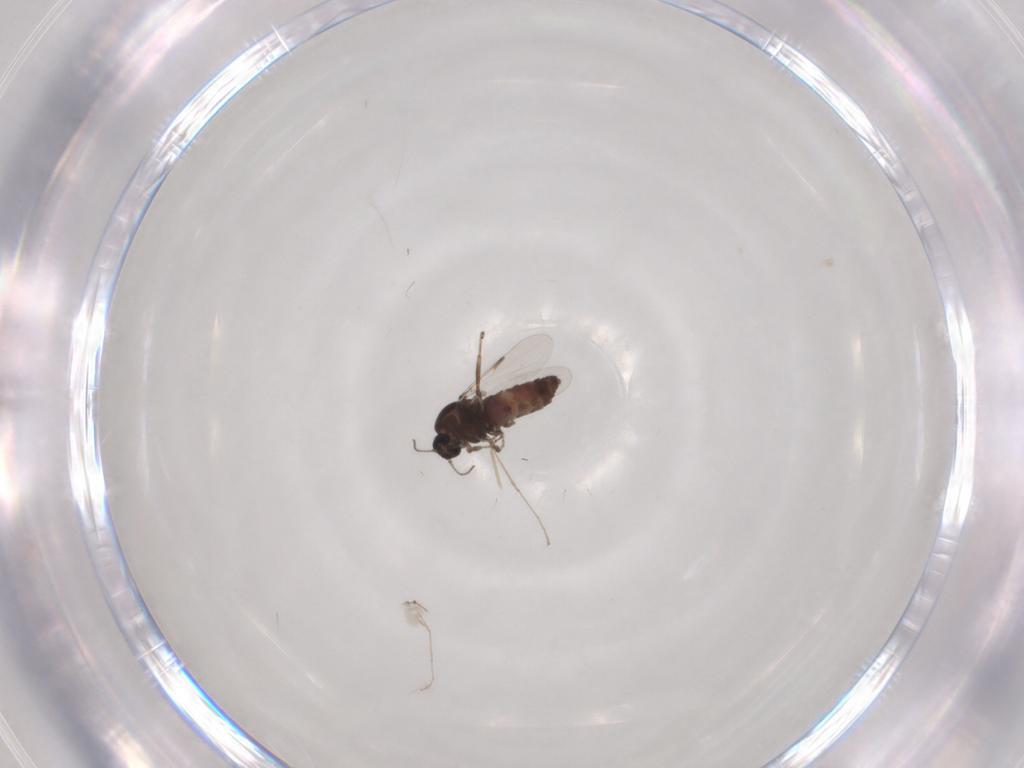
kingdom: Animalia
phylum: Arthropoda
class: Insecta
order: Diptera
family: Ceratopogonidae
